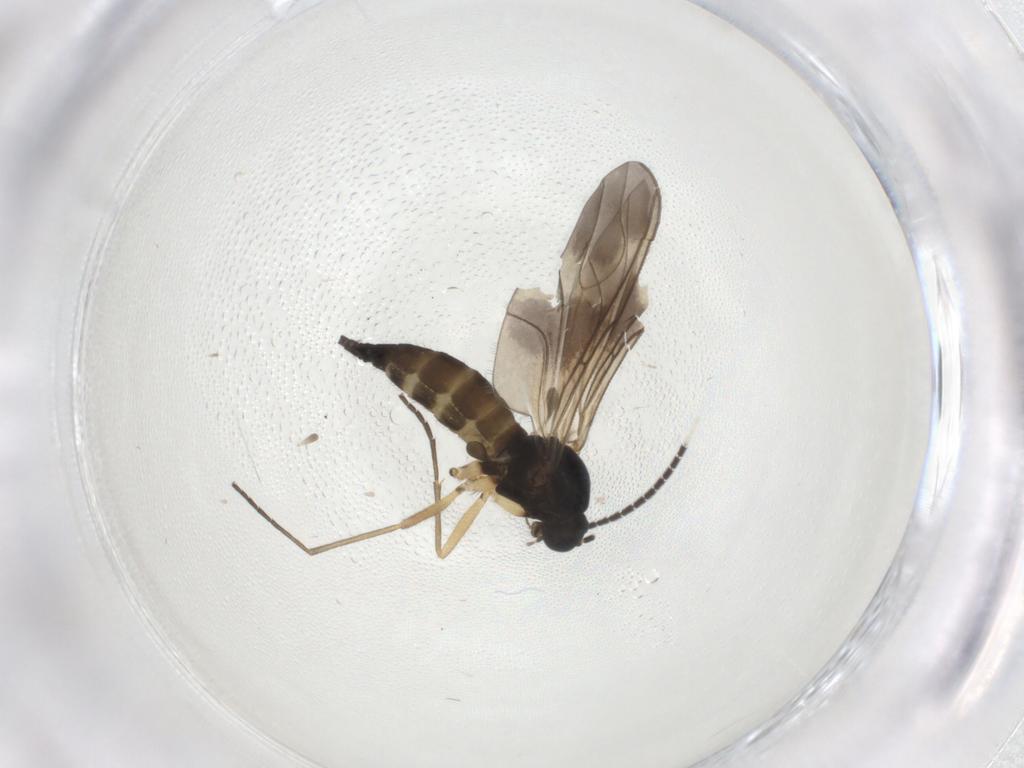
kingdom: Animalia
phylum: Arthropoda
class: Insecta
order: Diptera
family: Sciaridae
